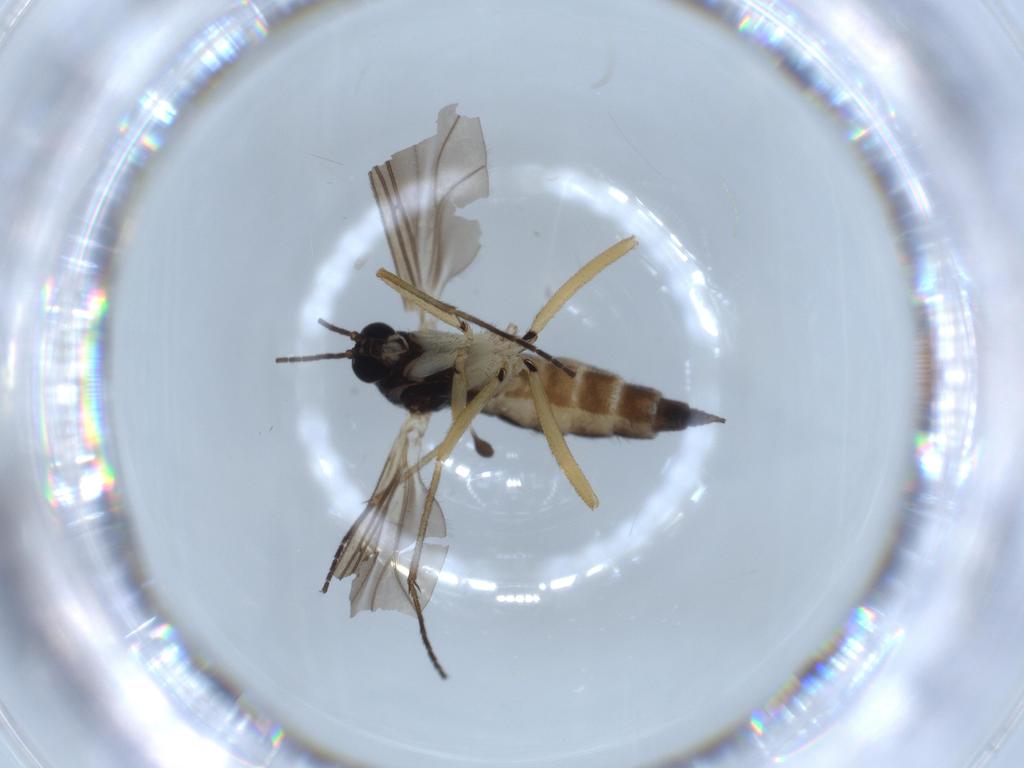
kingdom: Animalia
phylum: Arthropoda
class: Insecta
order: Diptera
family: Sciaridae
